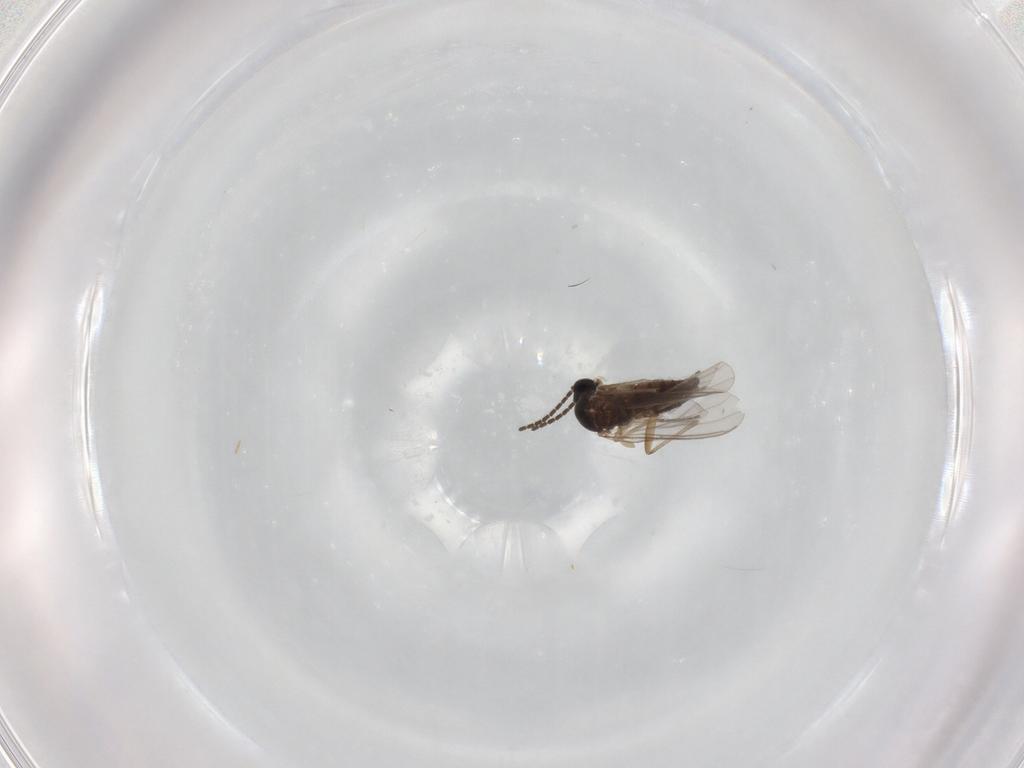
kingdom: Animalia
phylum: Arthropoda
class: Insecta
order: Diptera
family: Sciaridae
